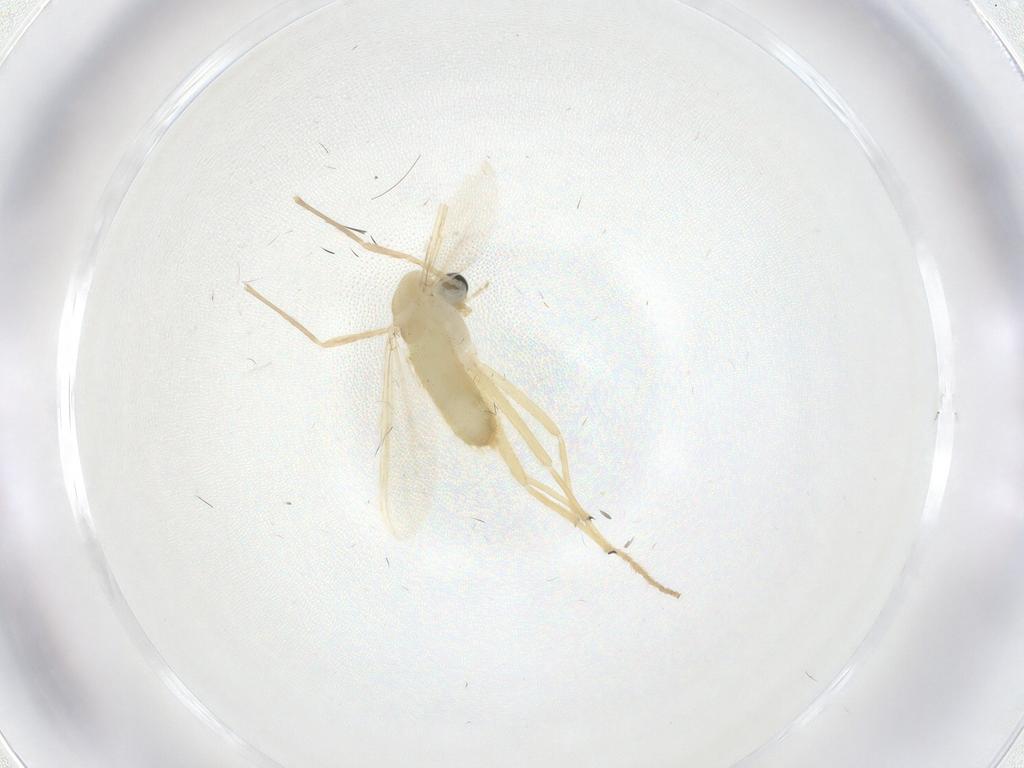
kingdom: Animalia
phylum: Arthropoda
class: Insecta
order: Diptera
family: Chironomidae
